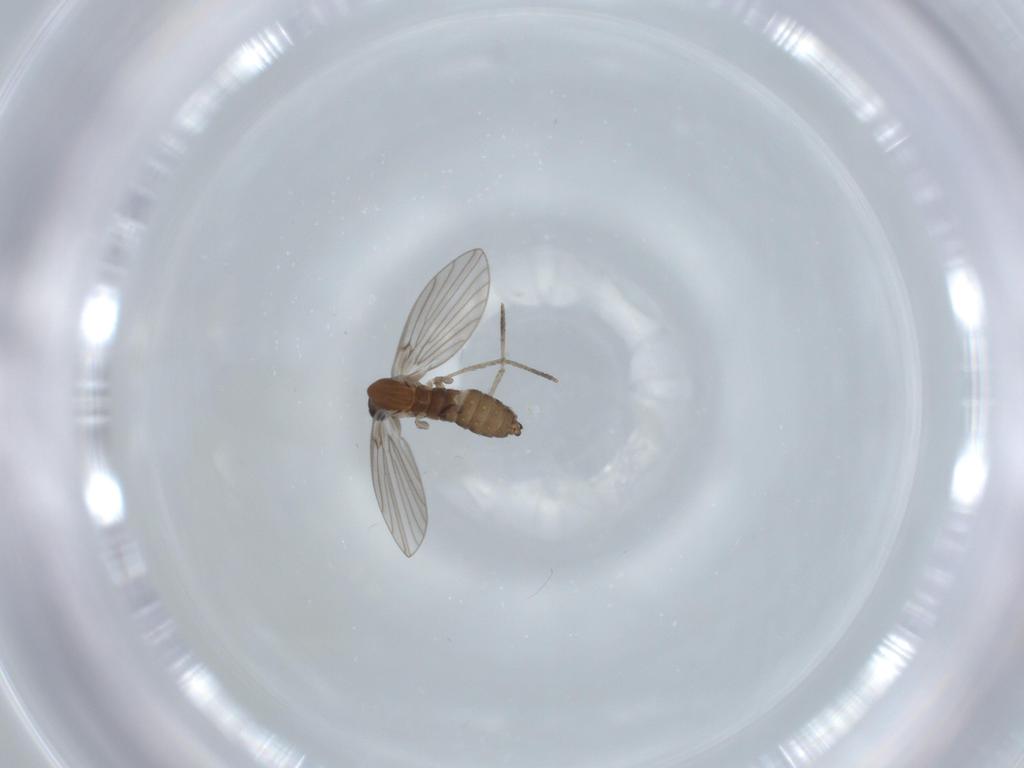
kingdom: Animalia
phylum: Arthropoda
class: Insecta
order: Diptera
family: Psychodidae
